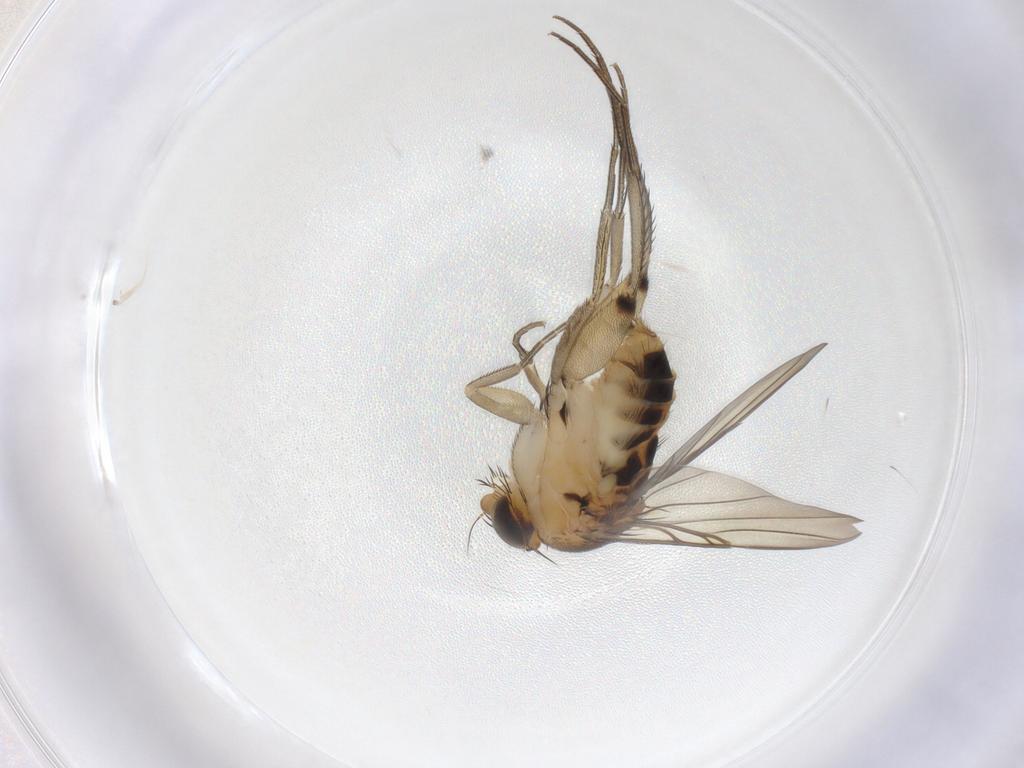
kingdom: Animalia
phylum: Arthropoda
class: Insecta
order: Diptera
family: Phoridae
